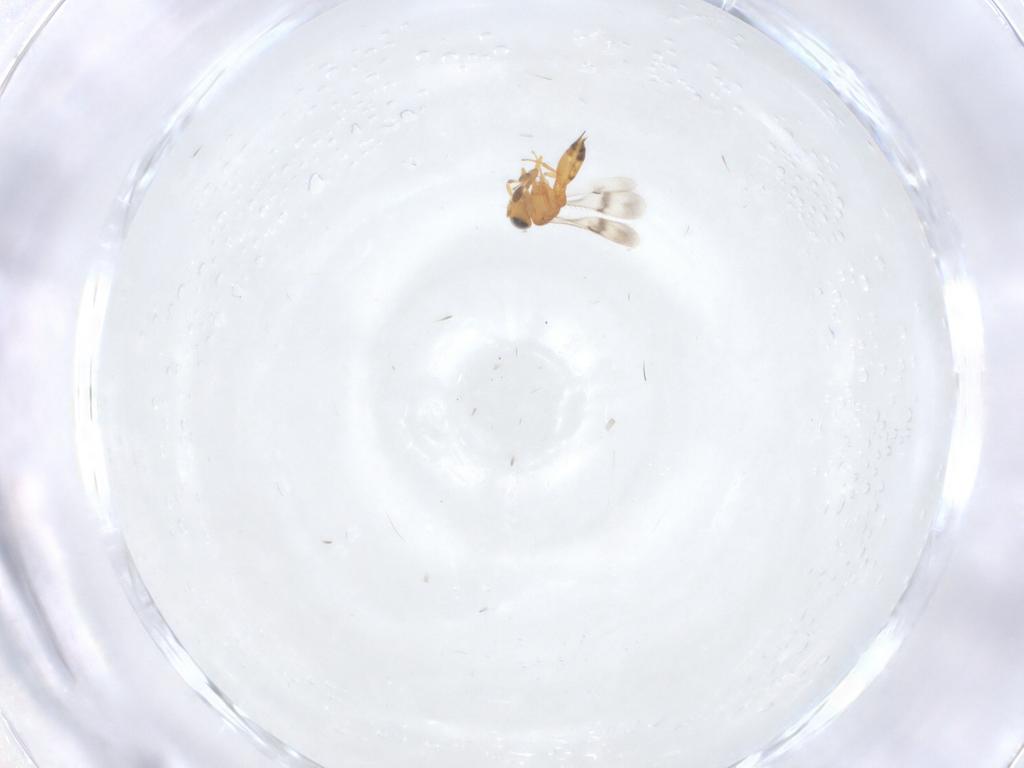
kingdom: Animalia
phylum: Arthropoda
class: Insecta
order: Hymenoptera
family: Scelionidae
